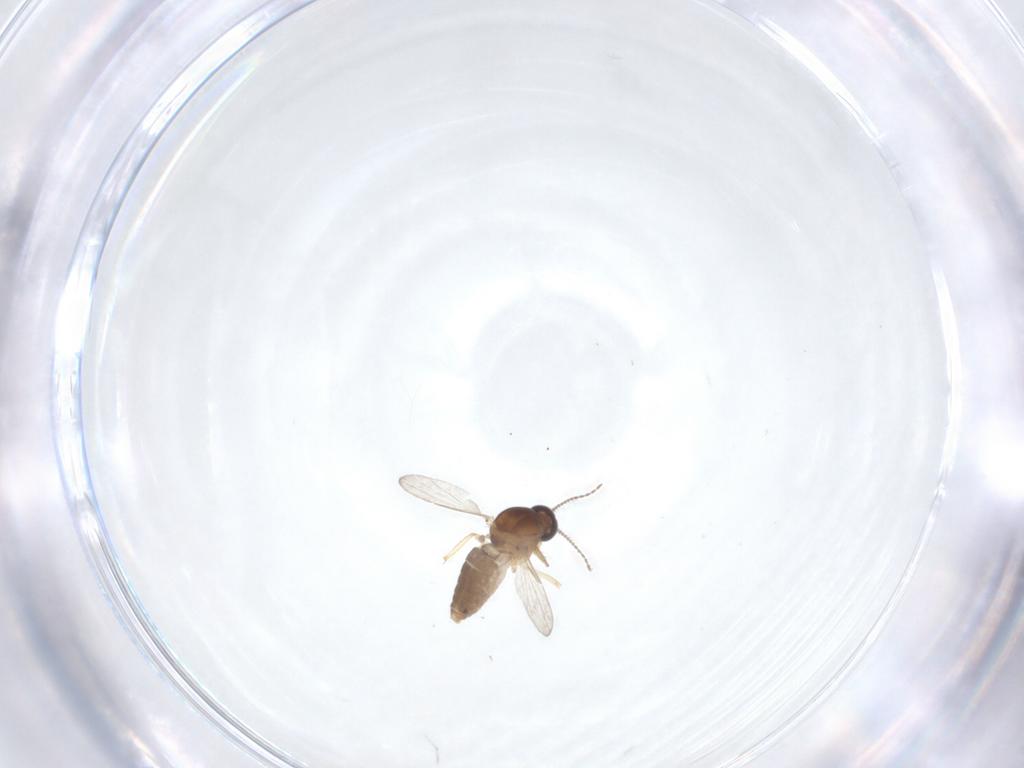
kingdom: Animalia
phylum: Arthropoda
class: Insecta
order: Diptera
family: Ceratopogonidae
